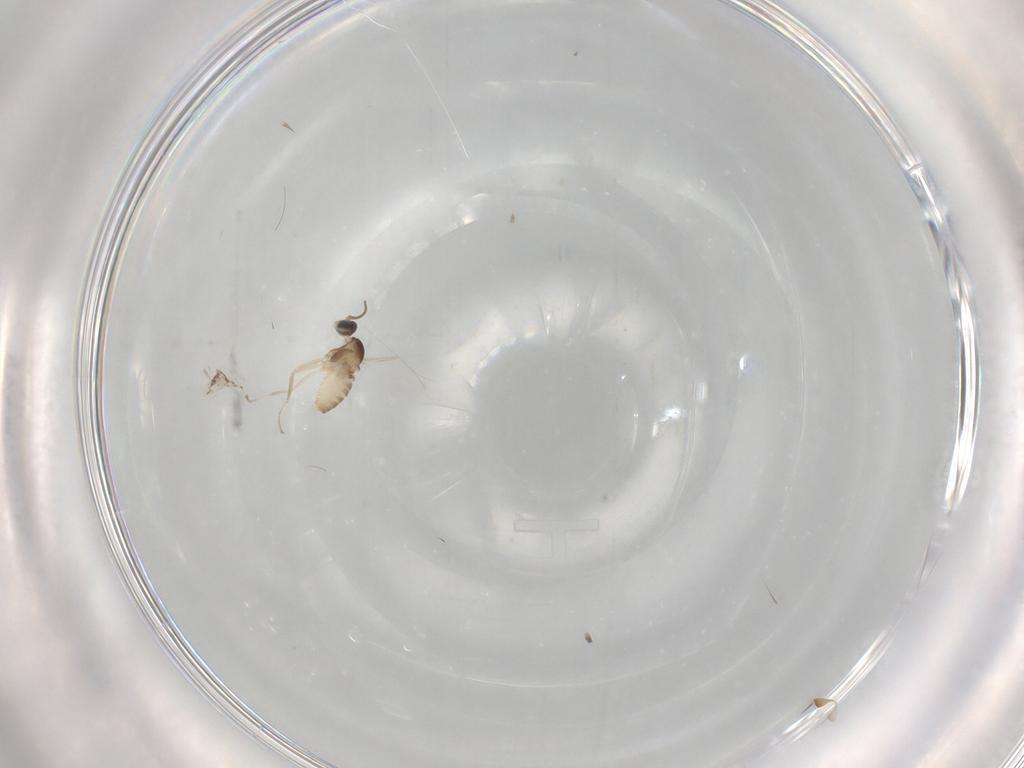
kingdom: Animalia
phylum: Arthropoda
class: Insecta
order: Diptera
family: Cecidomyiidae
